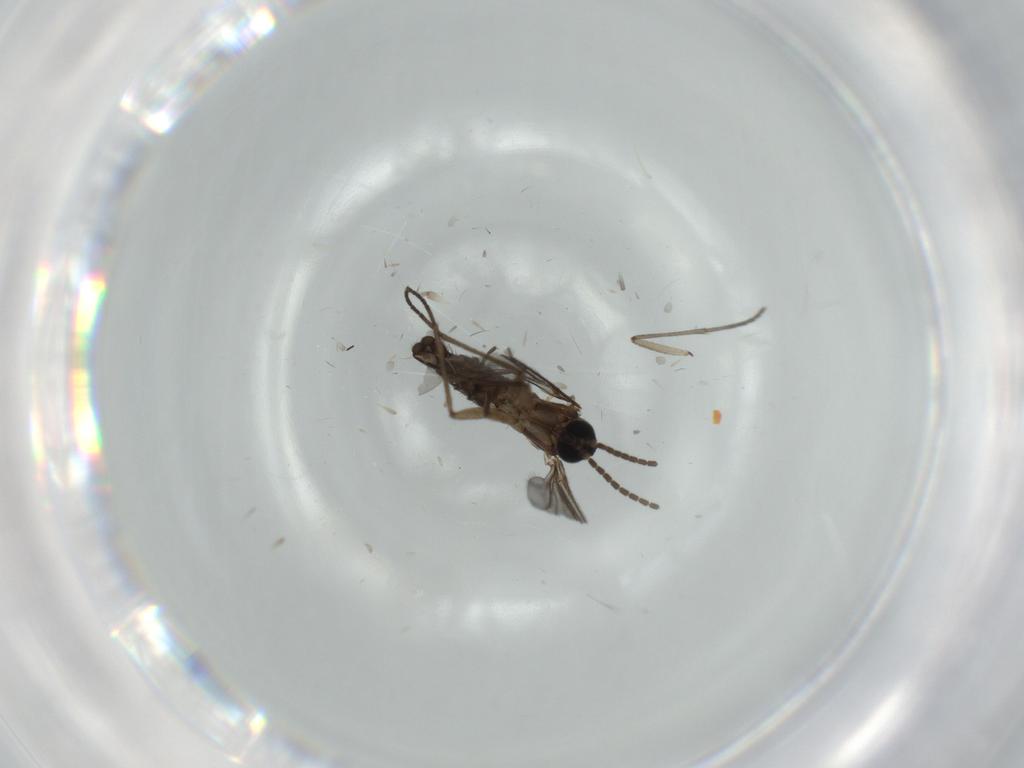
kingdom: Animalia
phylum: Arthropoda
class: Insecta
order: Diptera
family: Sciaridae
